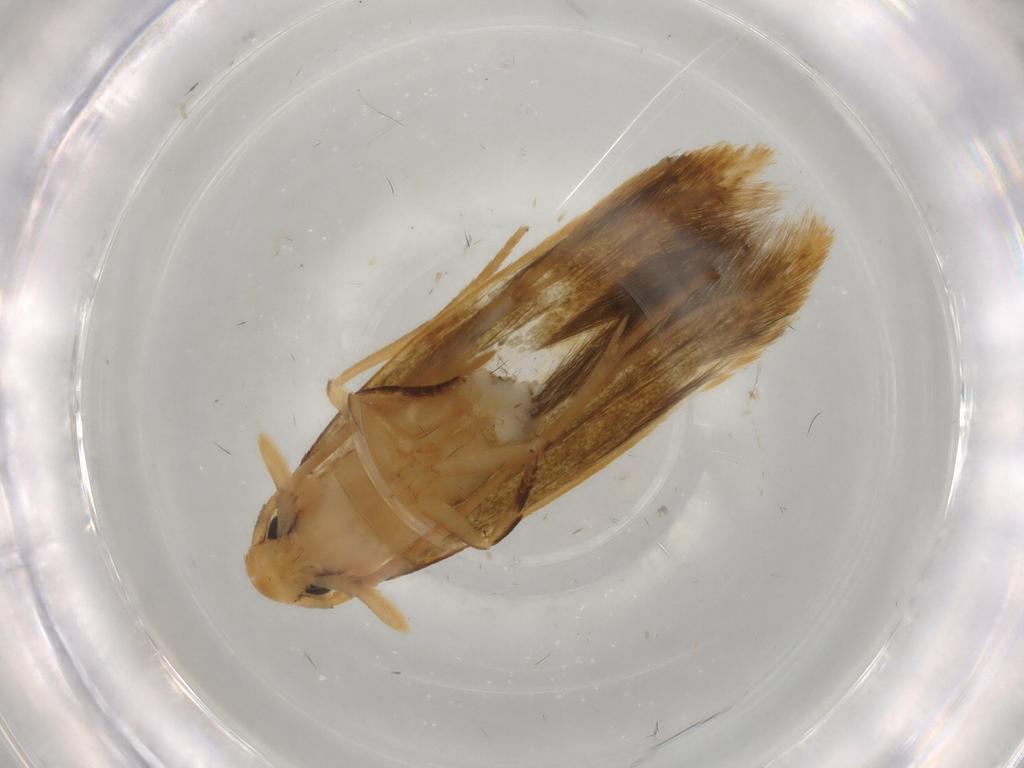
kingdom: Animalia
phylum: Arthropoda
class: Insecta
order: Lepidoptera
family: Tineidae
